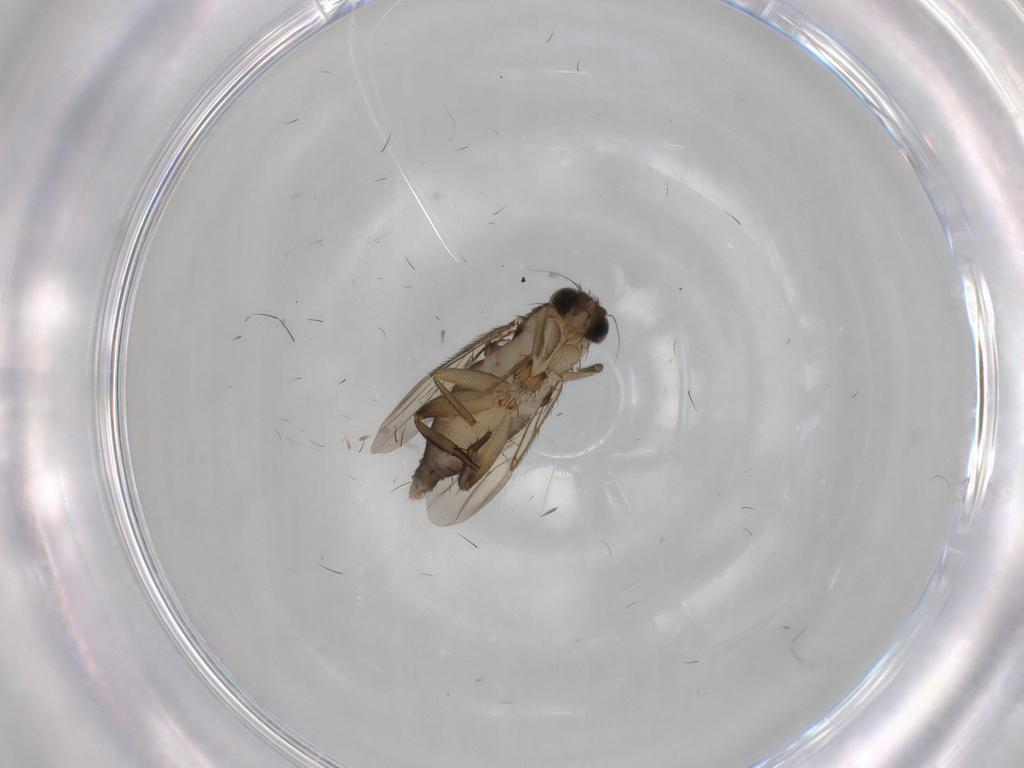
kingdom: Animalia
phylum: Arthropoda
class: Insecta
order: Diptera
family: Phoridae
